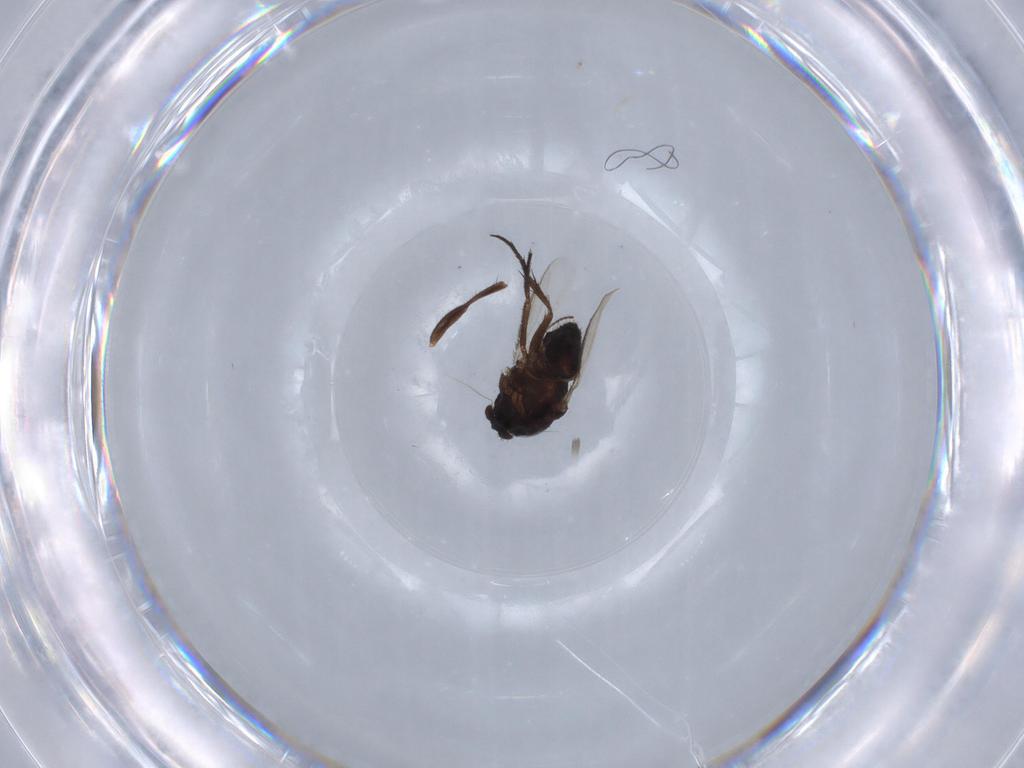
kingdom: Animalia
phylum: Arthropoda
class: Insecta
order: Diptera
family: Sphaeroceridae
